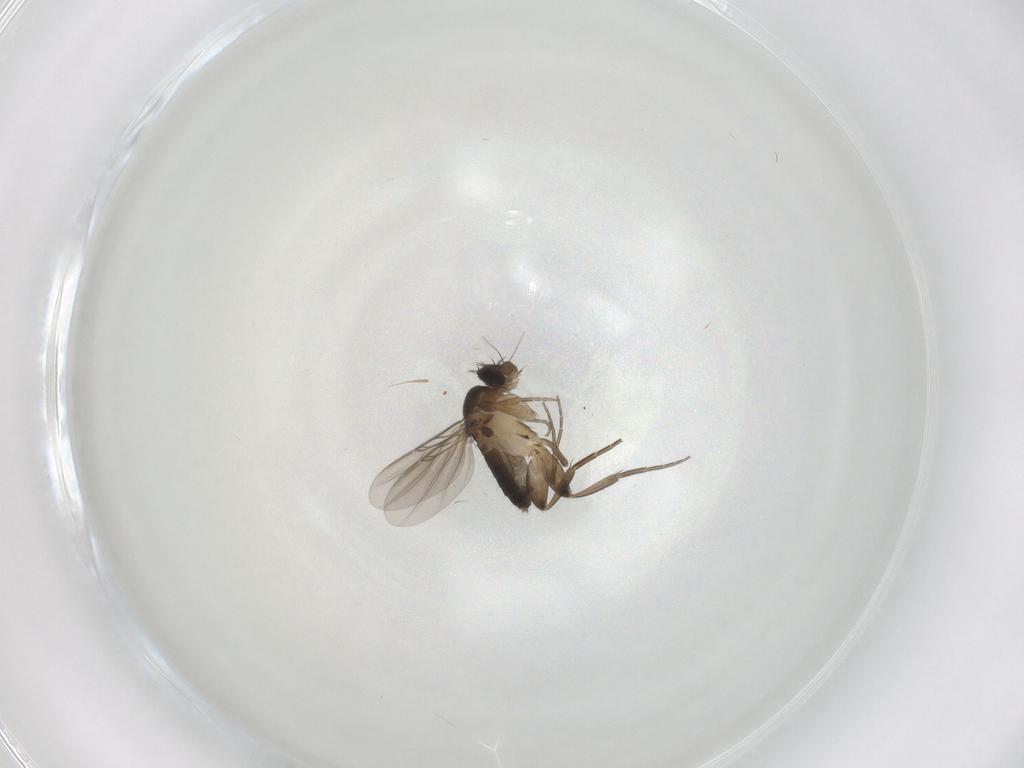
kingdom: Animalia
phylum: Arthropoda
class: Insecta
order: Diptera
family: Phoridae
